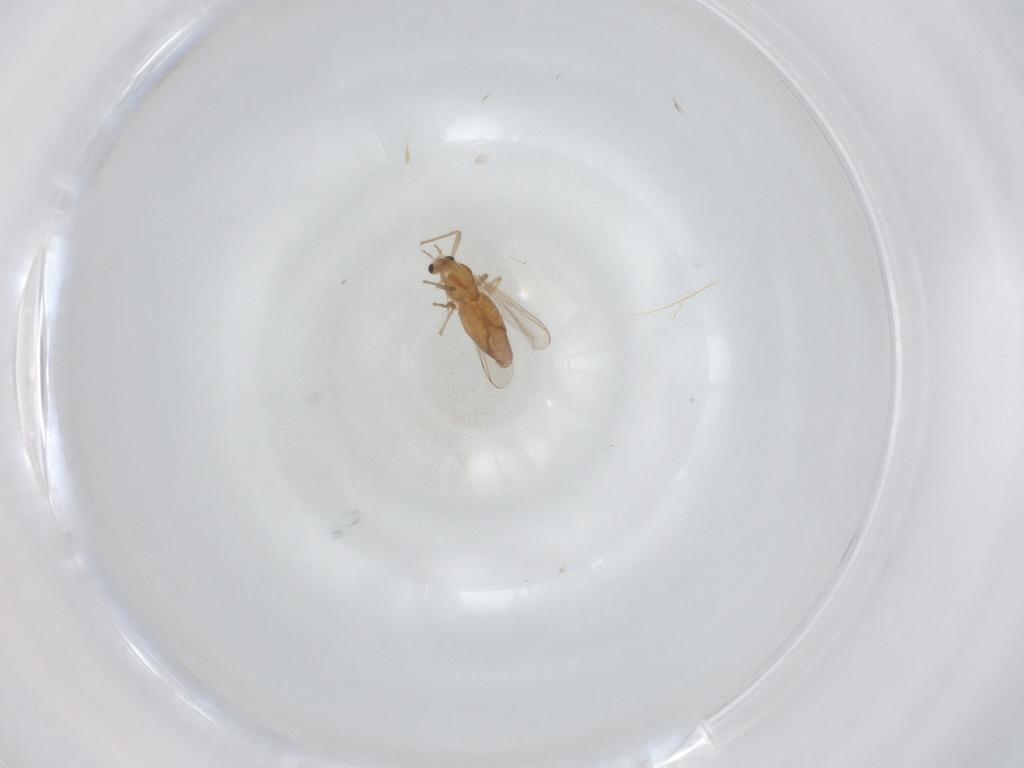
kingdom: Animalia
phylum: Arthropoda
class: Insecta
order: Diptera
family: Chironomidae
